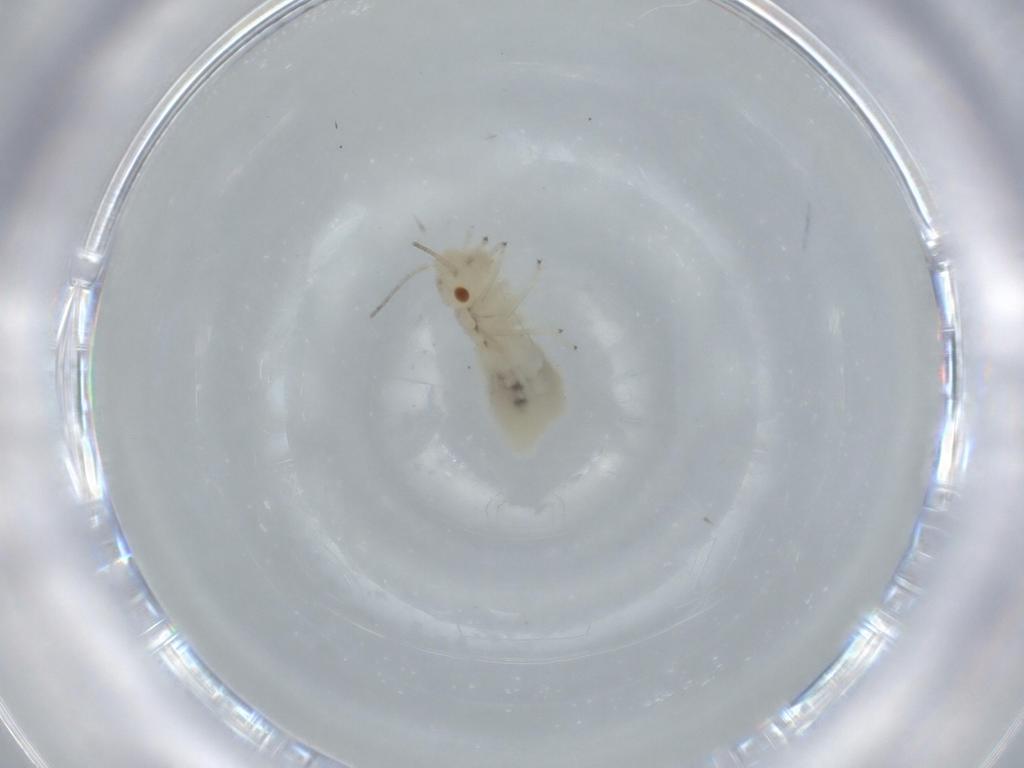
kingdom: Animalia
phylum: Arthropoda
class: Insecta
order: Psocodea
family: Caeciliusidae
